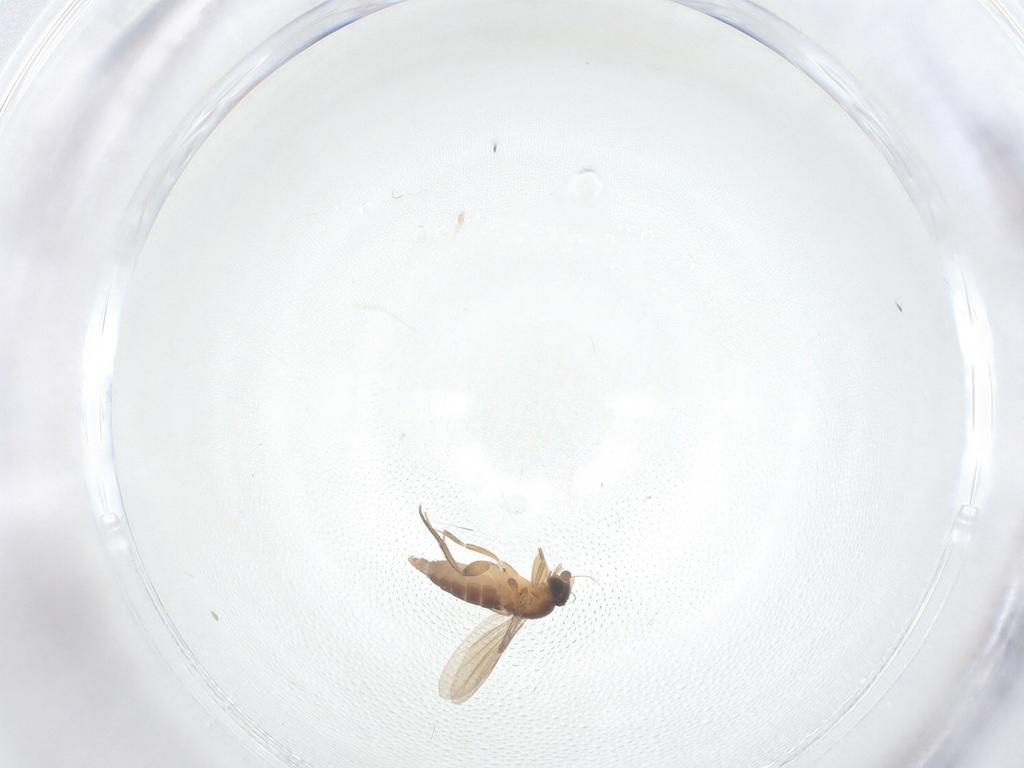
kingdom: Animalia
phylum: Arthropoda
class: Insecta
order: Diptera
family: Phoridae
